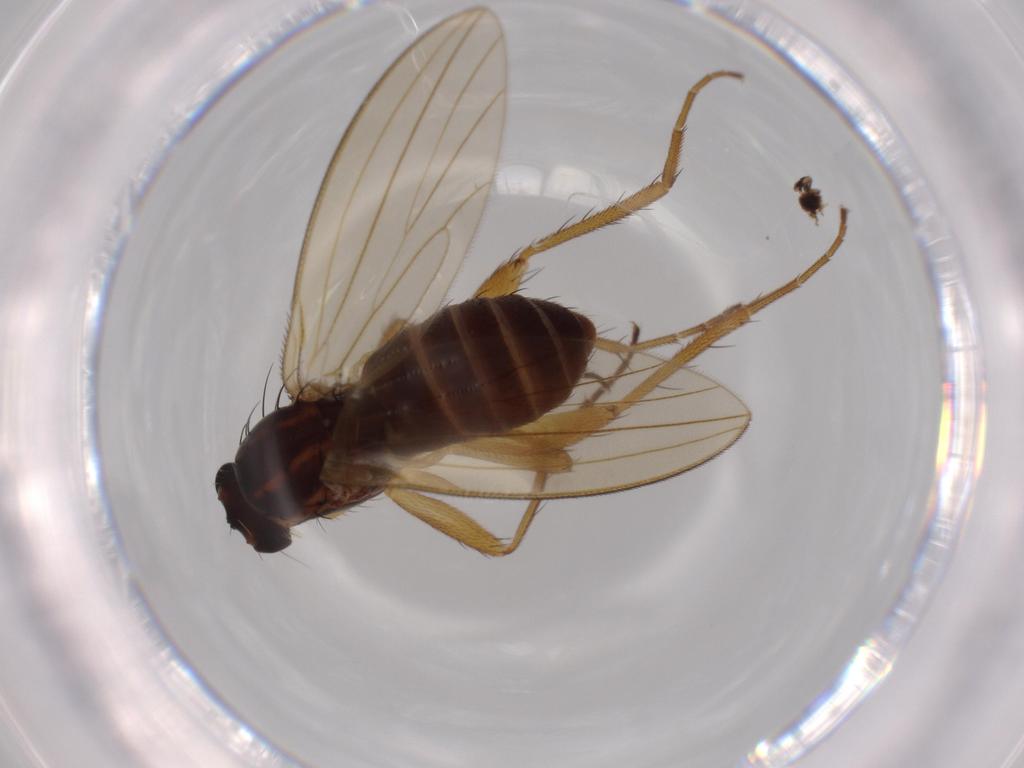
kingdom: Animalia
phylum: Arthropoda
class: Insecta
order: Diptera
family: Lonchopteridae
